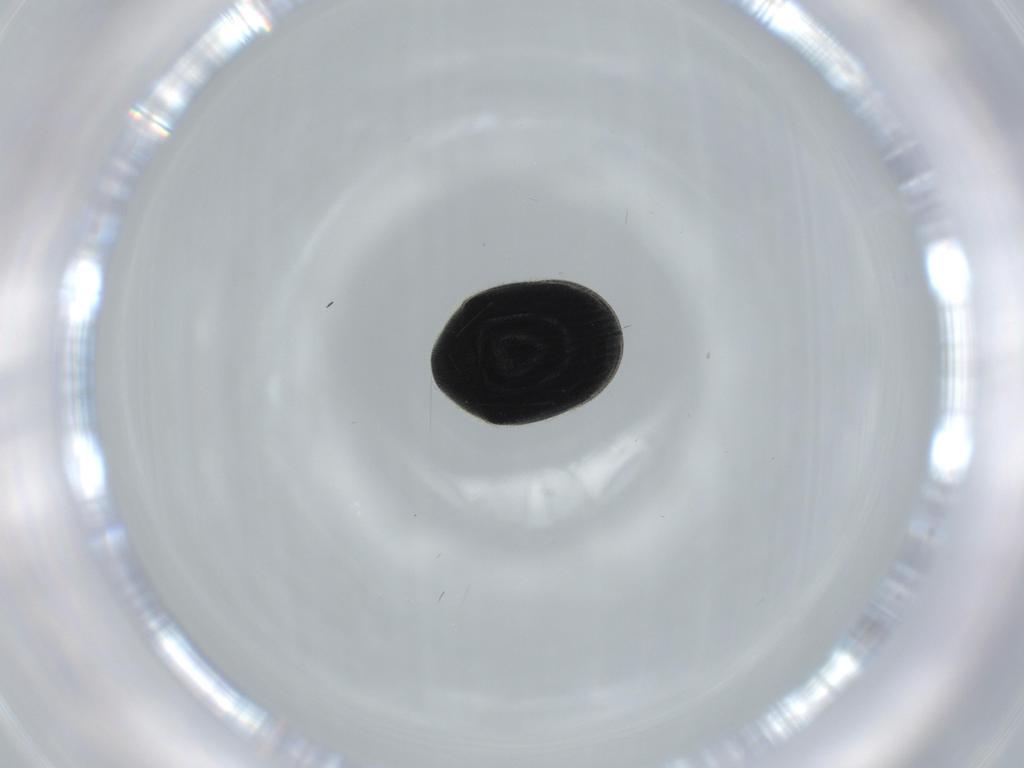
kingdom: Animalia
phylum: Arthropoda
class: Insecta
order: Coleoptera
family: Ptinidae
